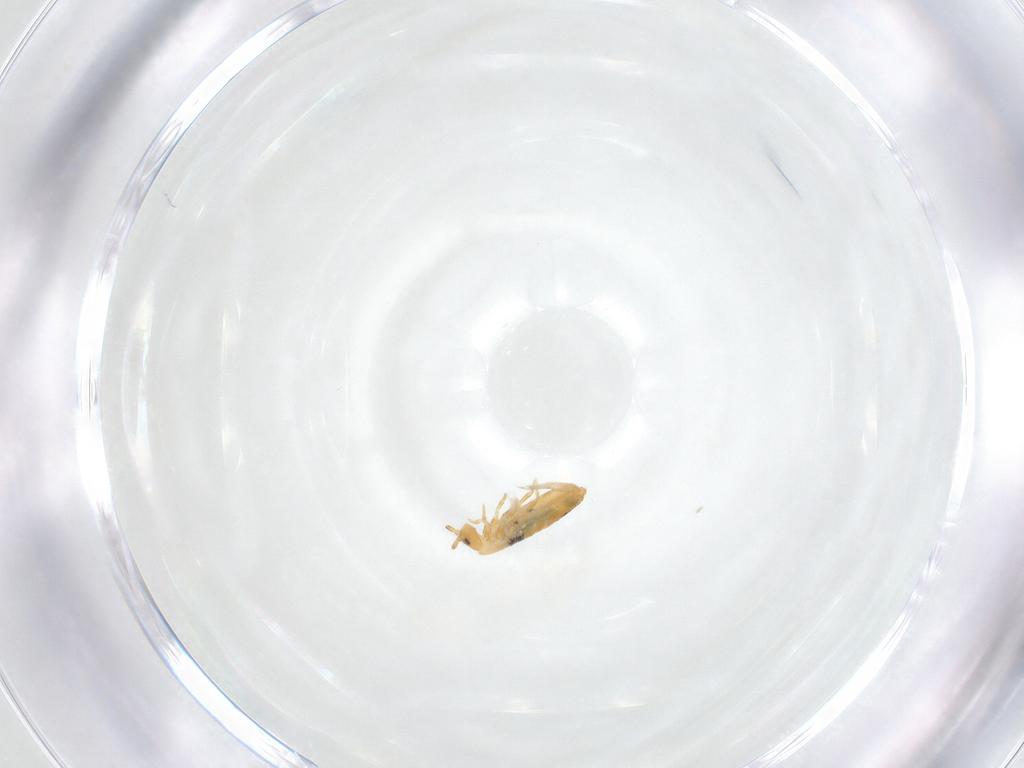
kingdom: Animalia
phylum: Arthropoda
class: Collembola
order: Entomobryomorpha
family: Entomobryidae
